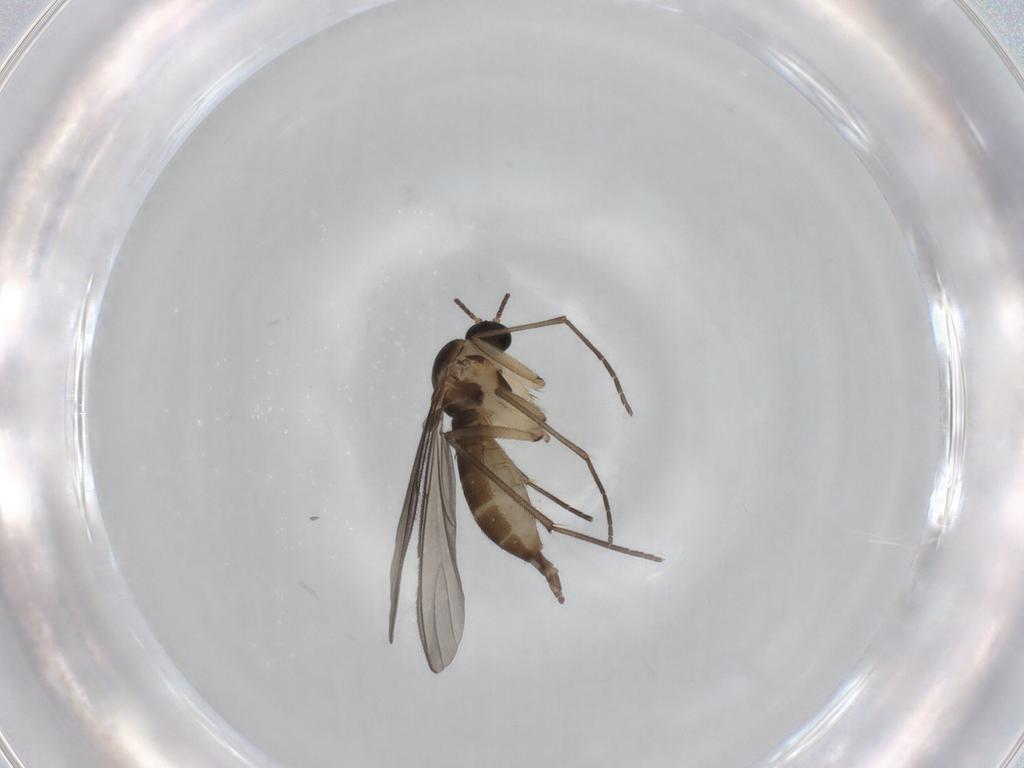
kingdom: Animalia
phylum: Arthropoda
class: Insecta
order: Diptera
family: Sciaridae
